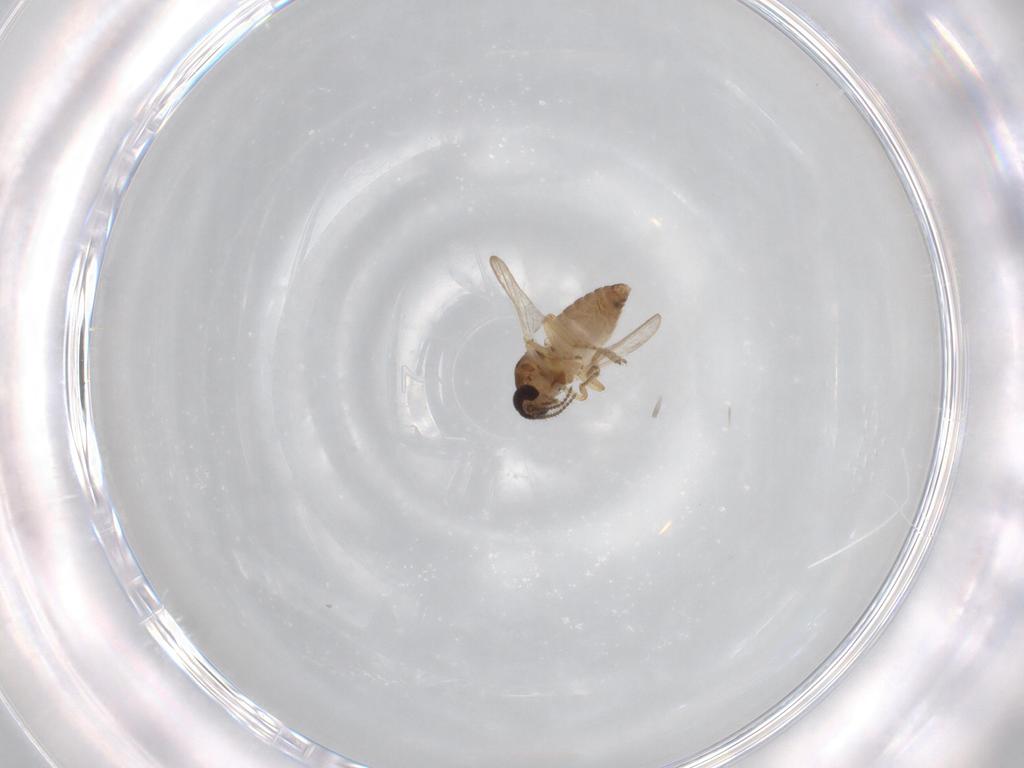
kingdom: Animalia
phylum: Arthropoda
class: Insecta
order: Diptera
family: Ceratopogonidae
